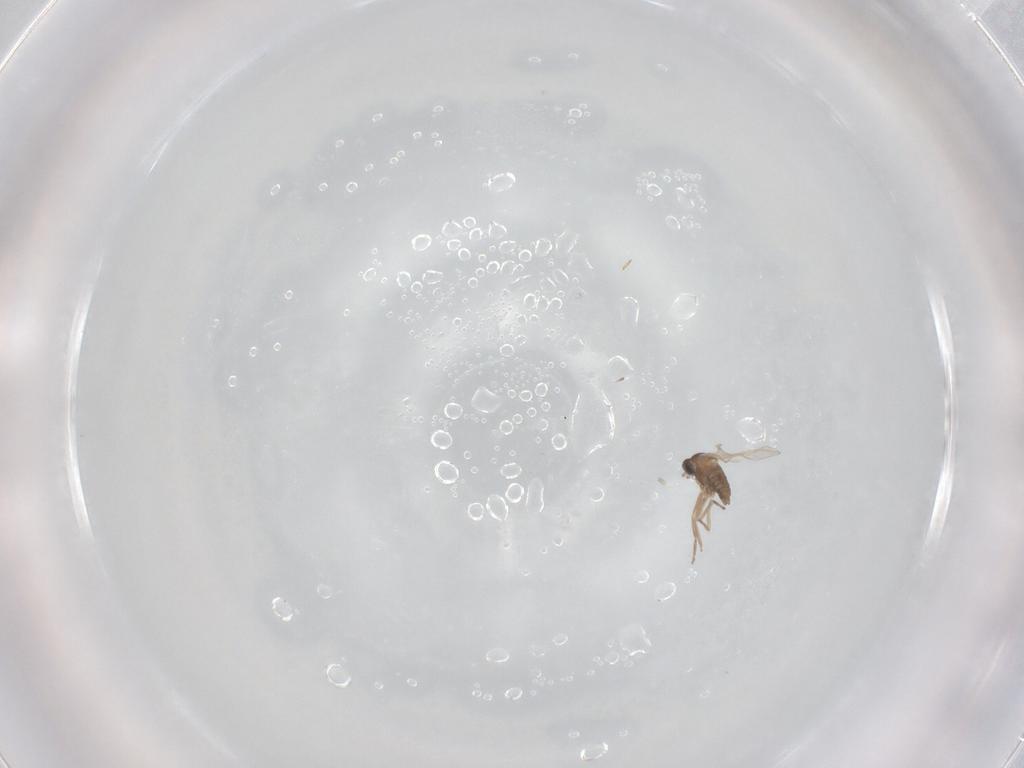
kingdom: Animalia
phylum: Arthropoda
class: Insecta
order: Diptera
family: Cecidomyiidae
